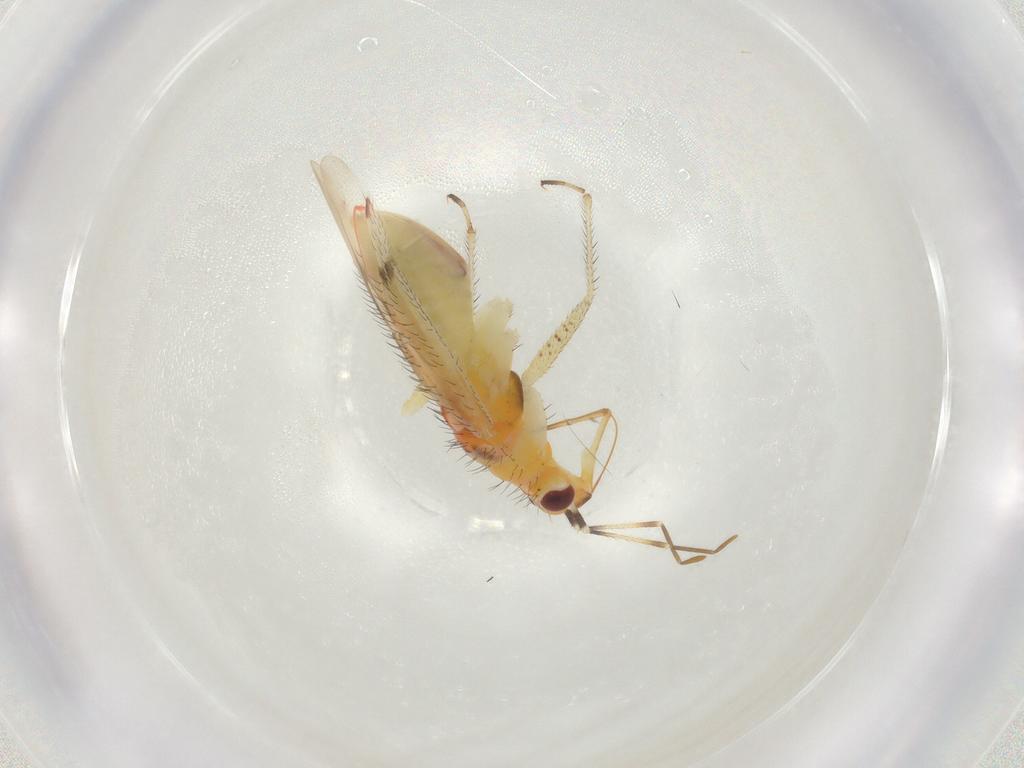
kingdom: Animalia
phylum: Arthropoda
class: Insecta
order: Hemiptera
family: Miridae
